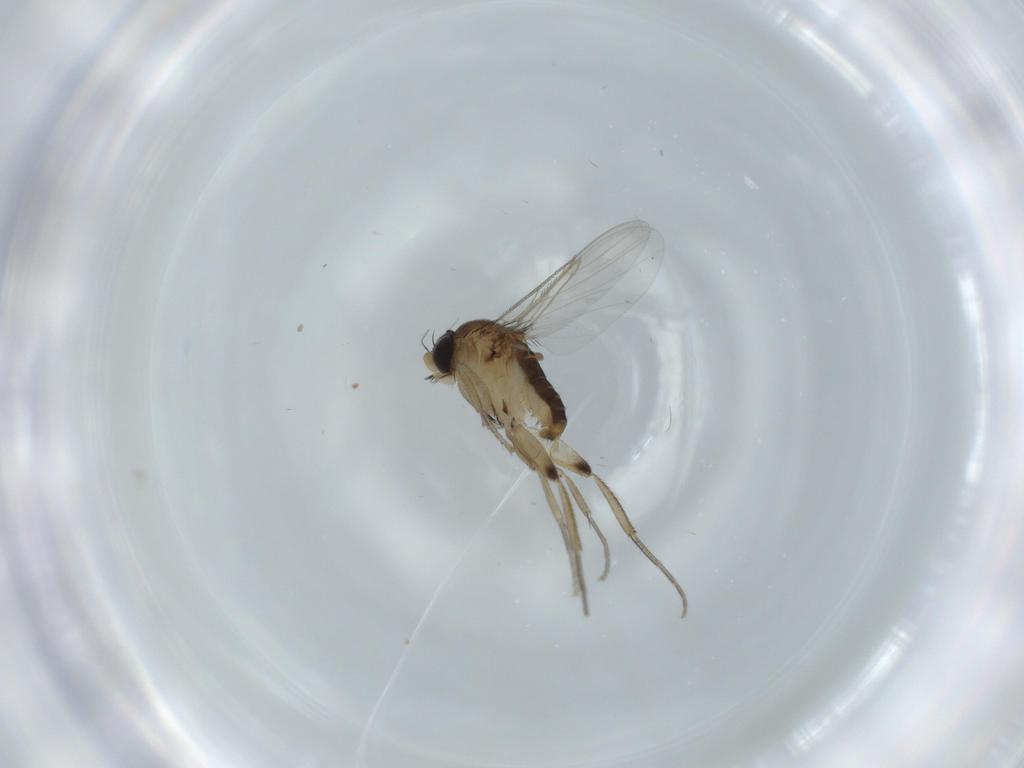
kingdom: Animalia
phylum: Arthropoda
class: Insecta
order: Diptera
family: Phoridae
